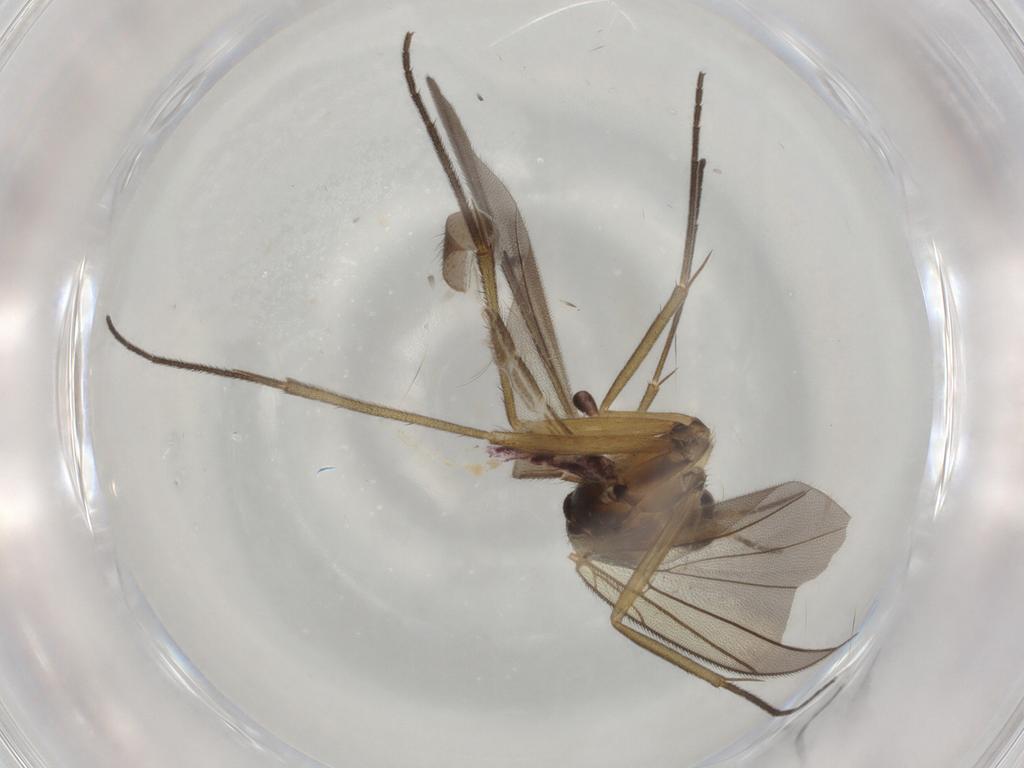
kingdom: Animalia
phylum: Arthropoda
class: Insecta
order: Diptera
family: Mycetophilidae
